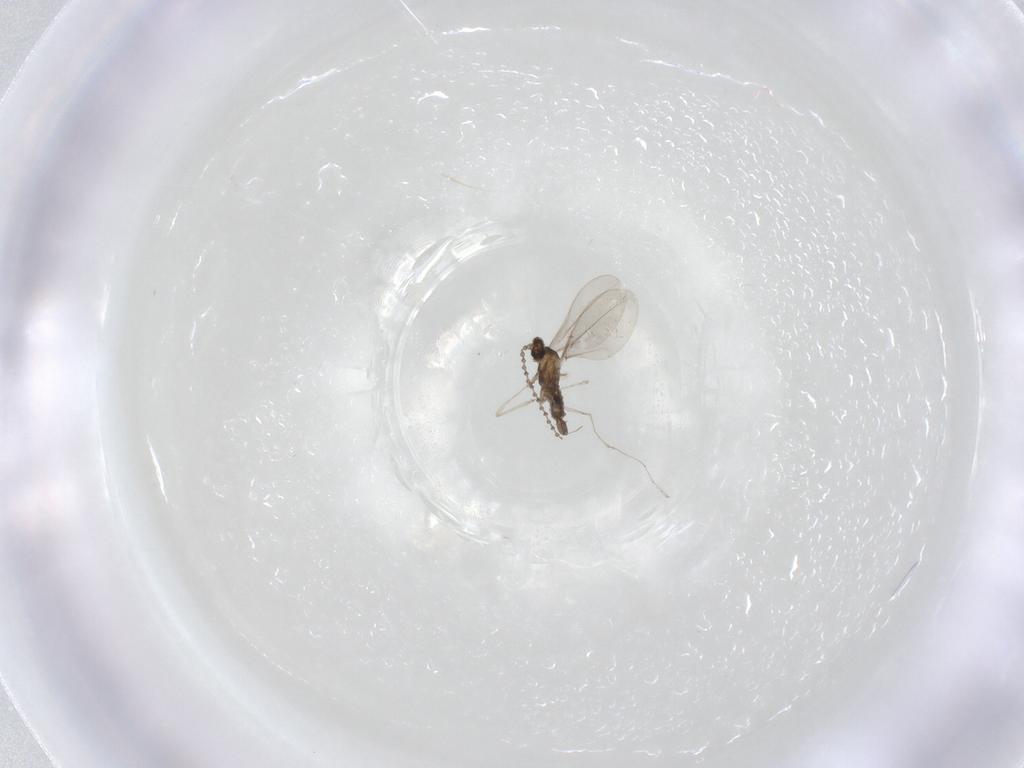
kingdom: Animalia
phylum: Arthropoda
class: Insecta
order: Diptera
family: Cecidomyiidae
